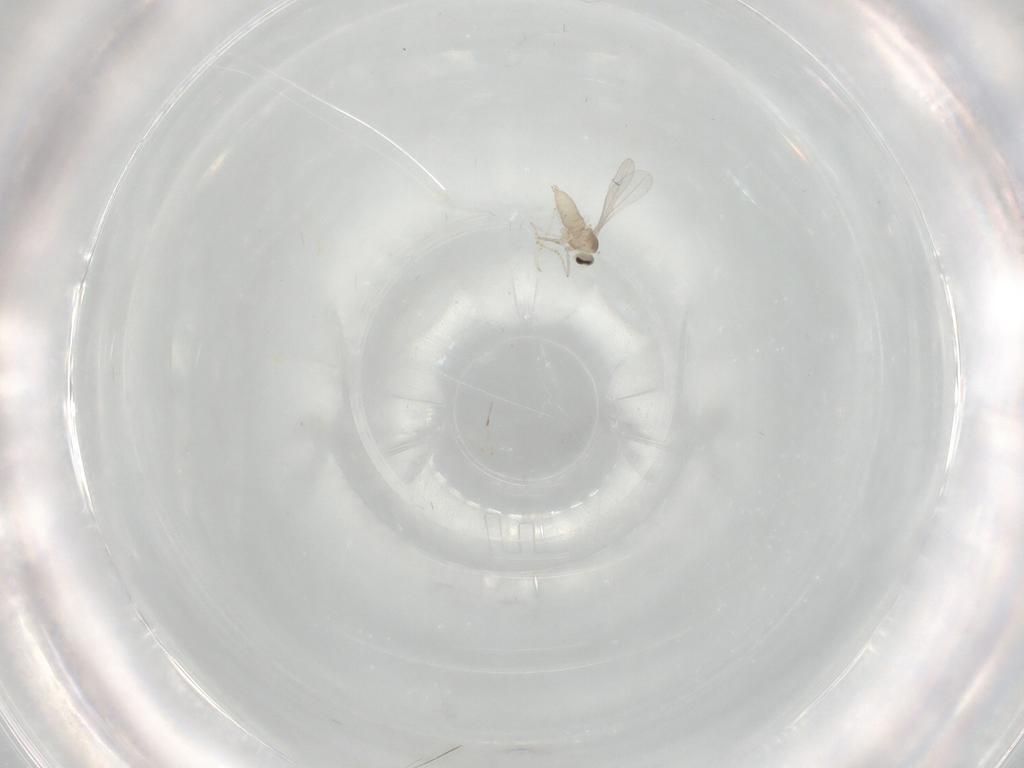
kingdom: Animalia
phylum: Arthropoda
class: Insecta
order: Diptera
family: Cecidomyiidae
